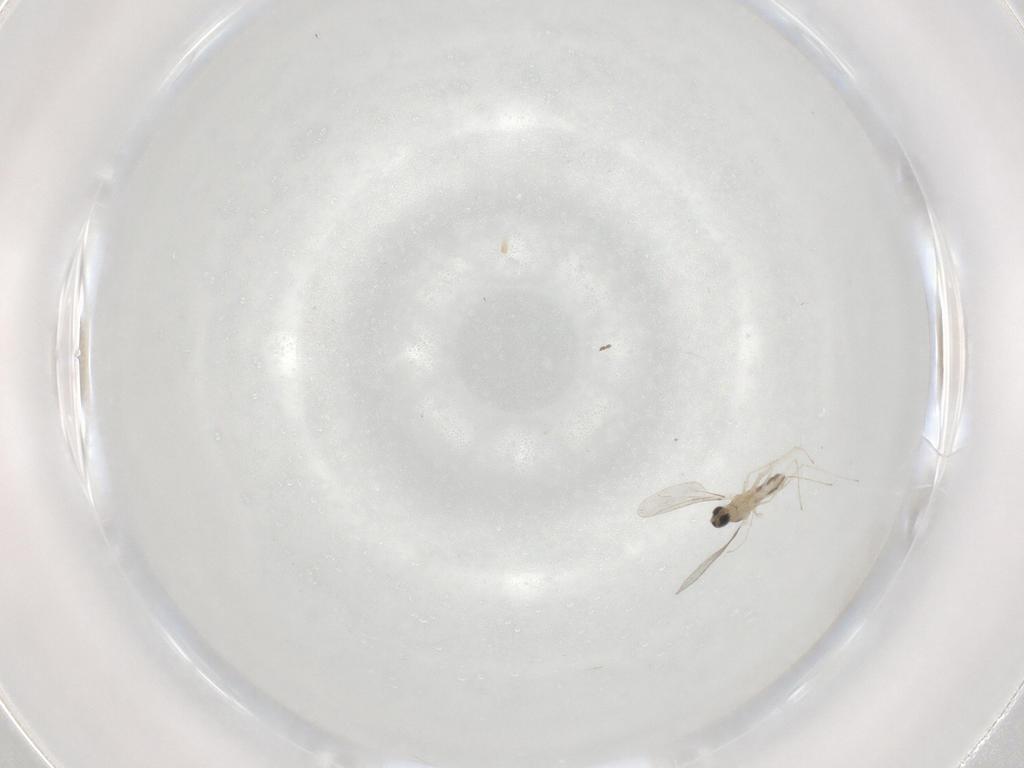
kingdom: Animalia
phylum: Arthropoda
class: Insecta
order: Diptera
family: Cecidomyiidae
